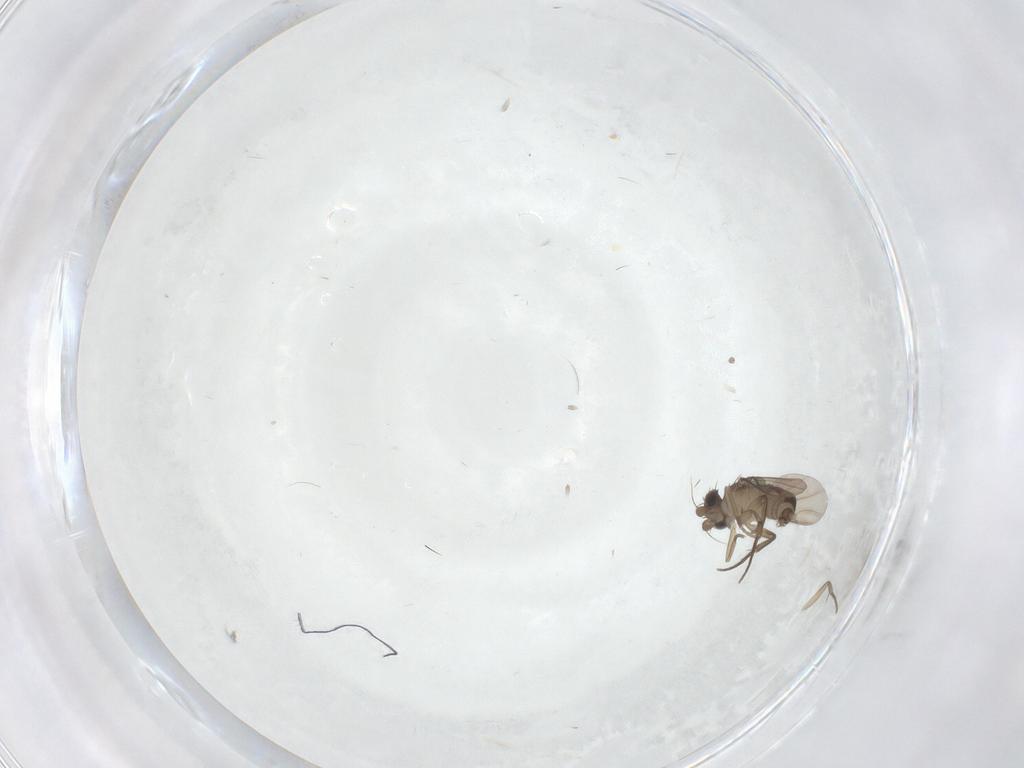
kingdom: Animalia
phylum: Arthropoda
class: Insecta
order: Diptera
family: Phoridae
